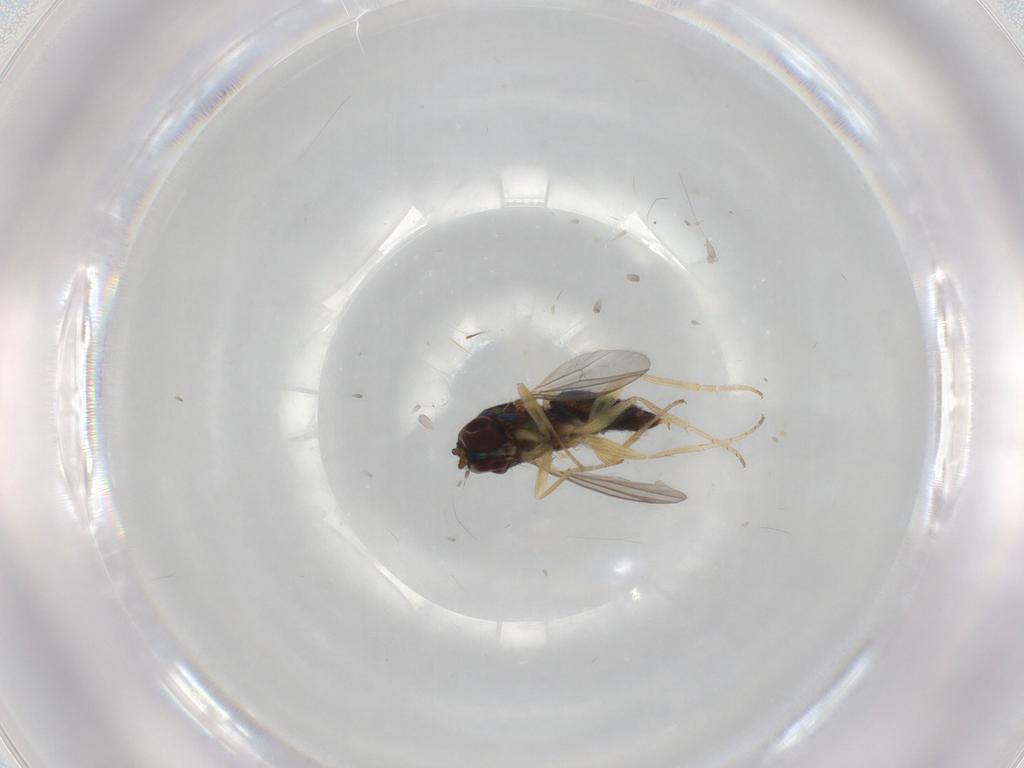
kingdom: Animalia
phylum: Arthropoda
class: Insecta
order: Diptera
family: Dolichopodidae
